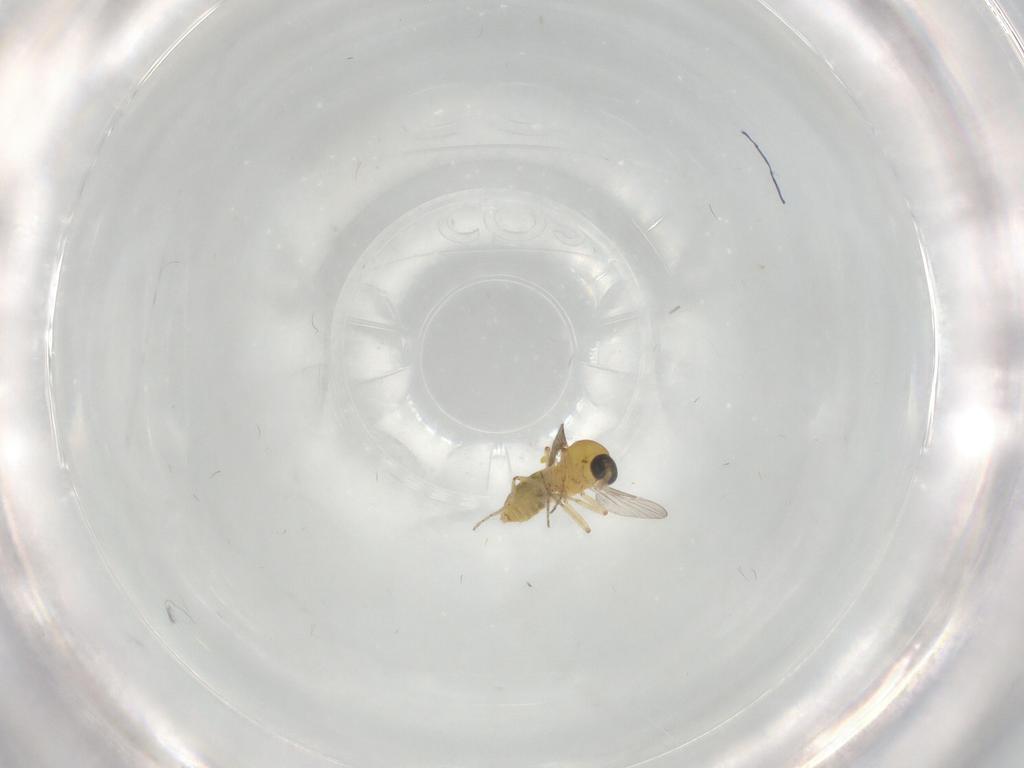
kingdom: Animalia
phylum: Arthropoda
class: Insecta
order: Diptera
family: Ceratopogonidae
